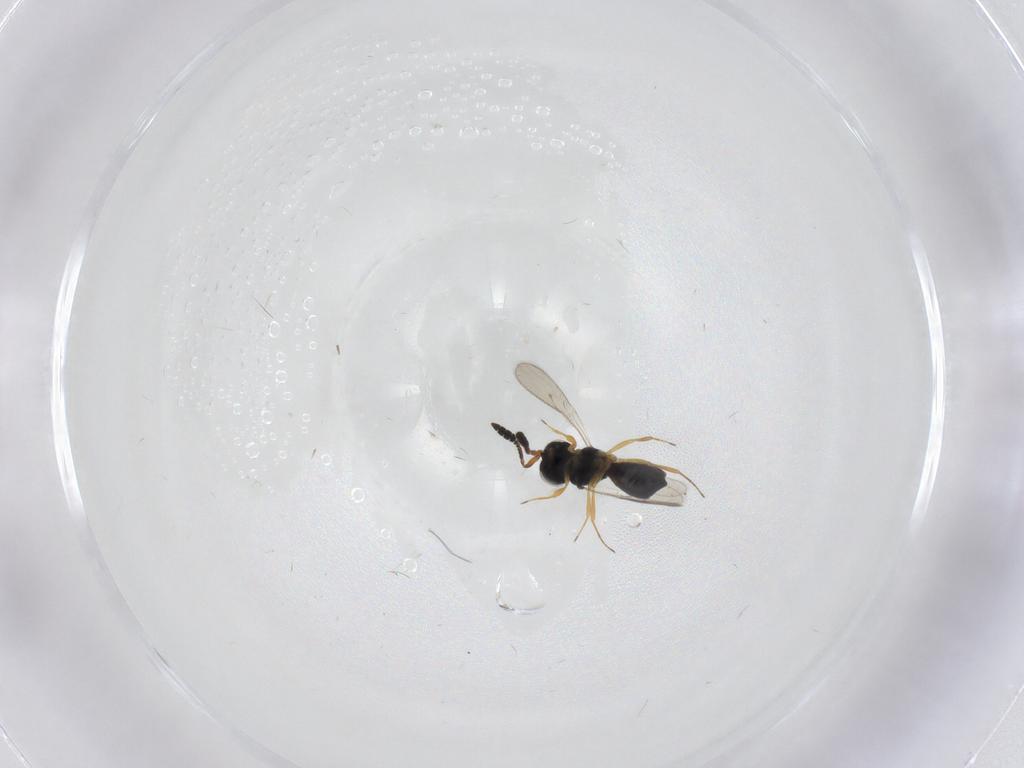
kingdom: Animalia
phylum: Arthropoda
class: Insecta
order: Hymenoptera
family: Scelionidae
